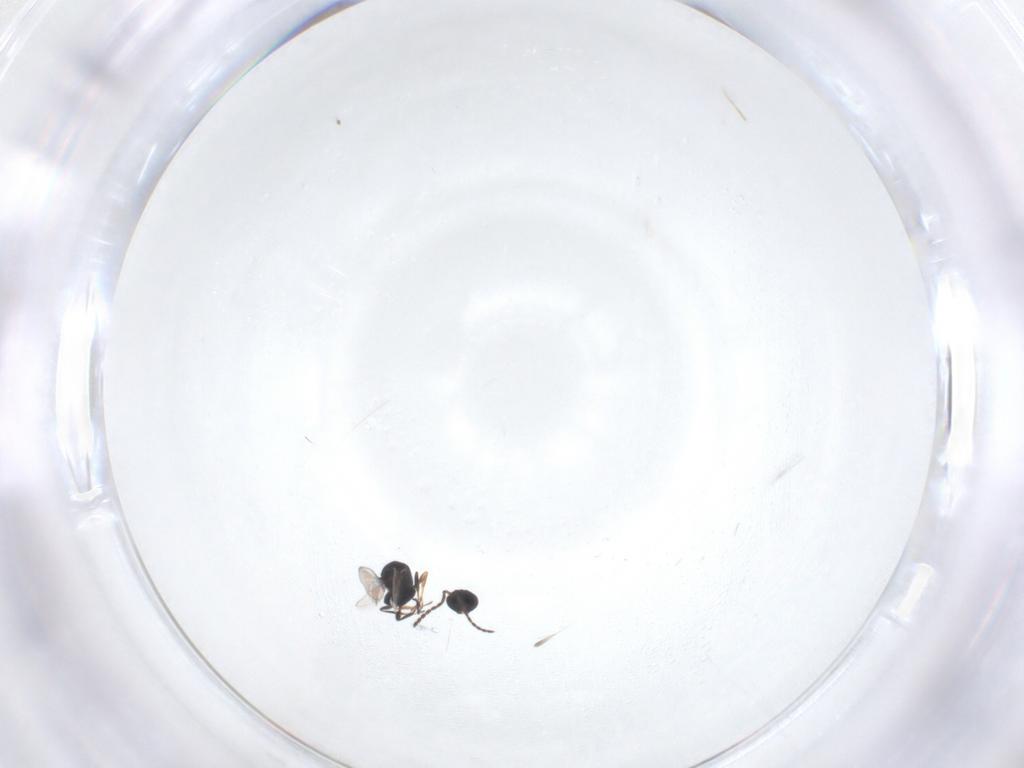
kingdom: Animalia
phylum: Arthropoda
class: Insecta
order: Hymenoptera
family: Platygastridae
